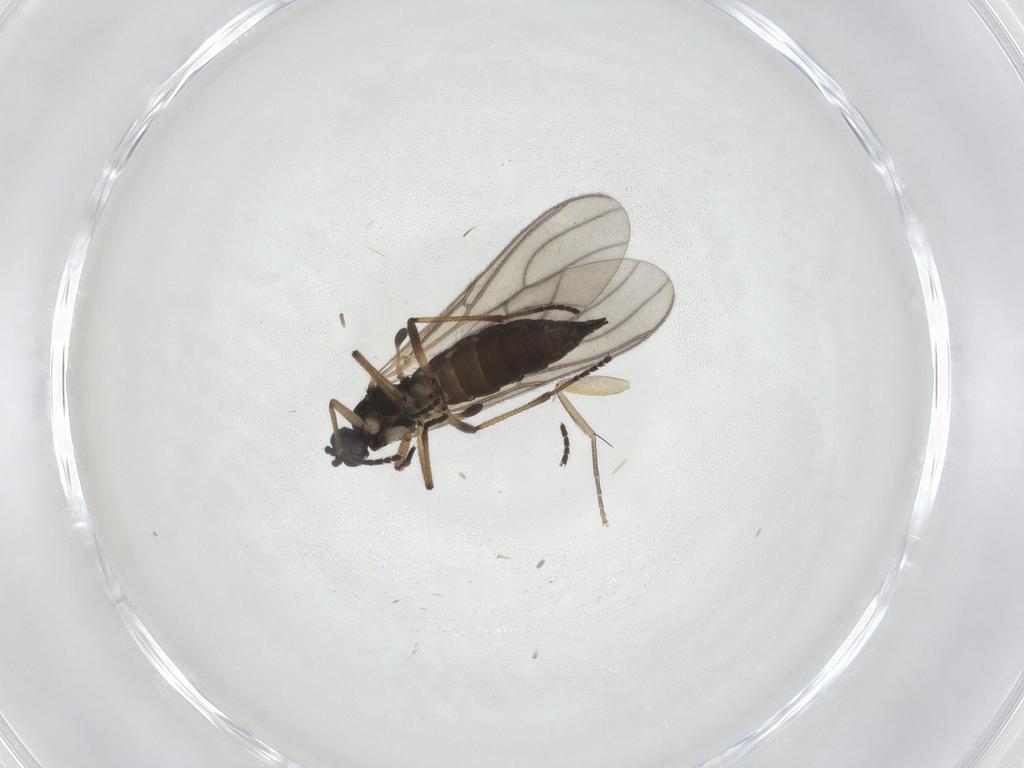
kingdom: Animalia
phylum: Arthropoda
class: Insecta
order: Diptera
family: Sciaridae
